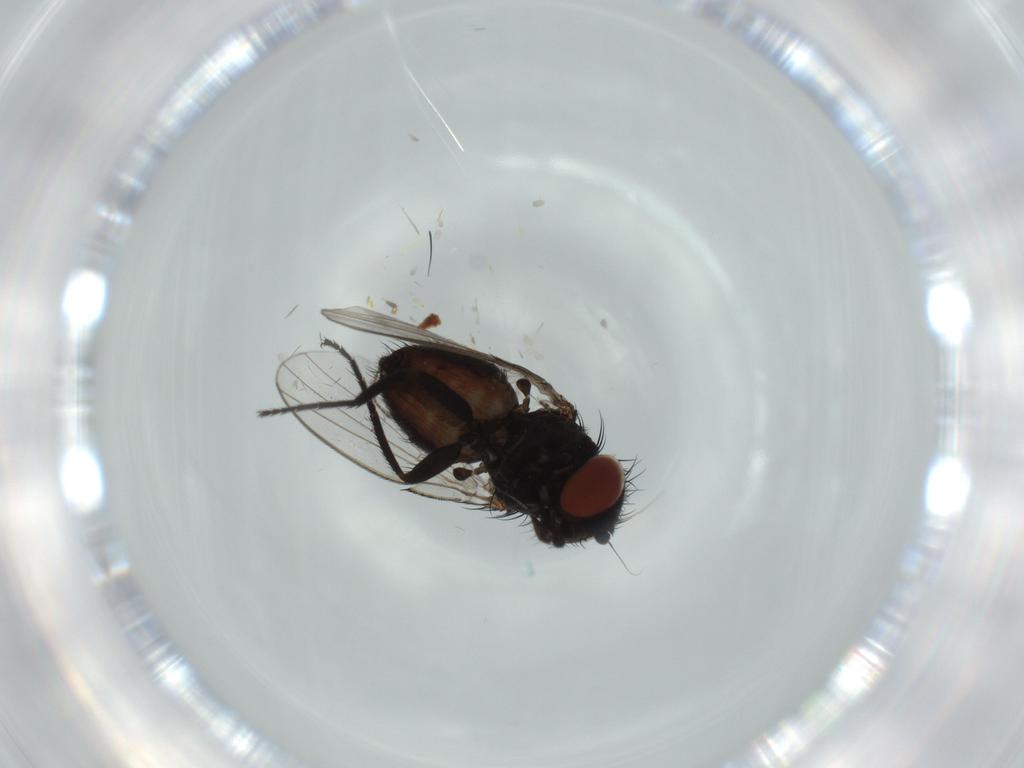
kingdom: Animalia
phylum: Arthropoda
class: Insecta
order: Diptera
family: Milichiidae
